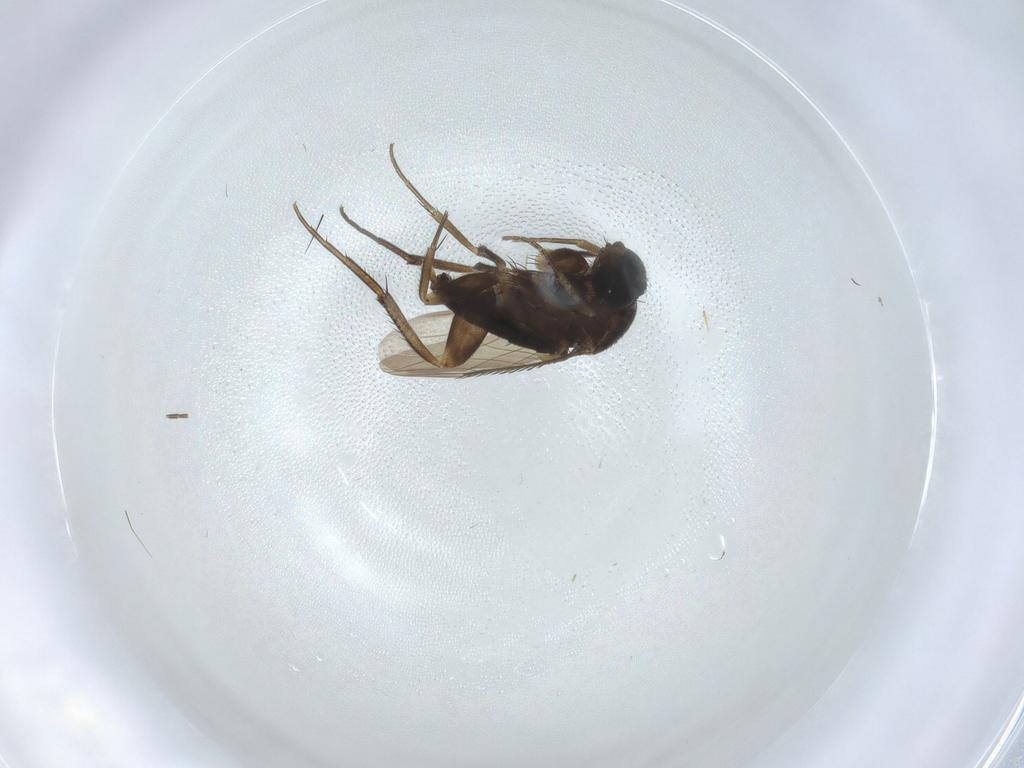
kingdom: Animalia
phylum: Arthropoda
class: Insecta
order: Diptera
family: Phoridae
